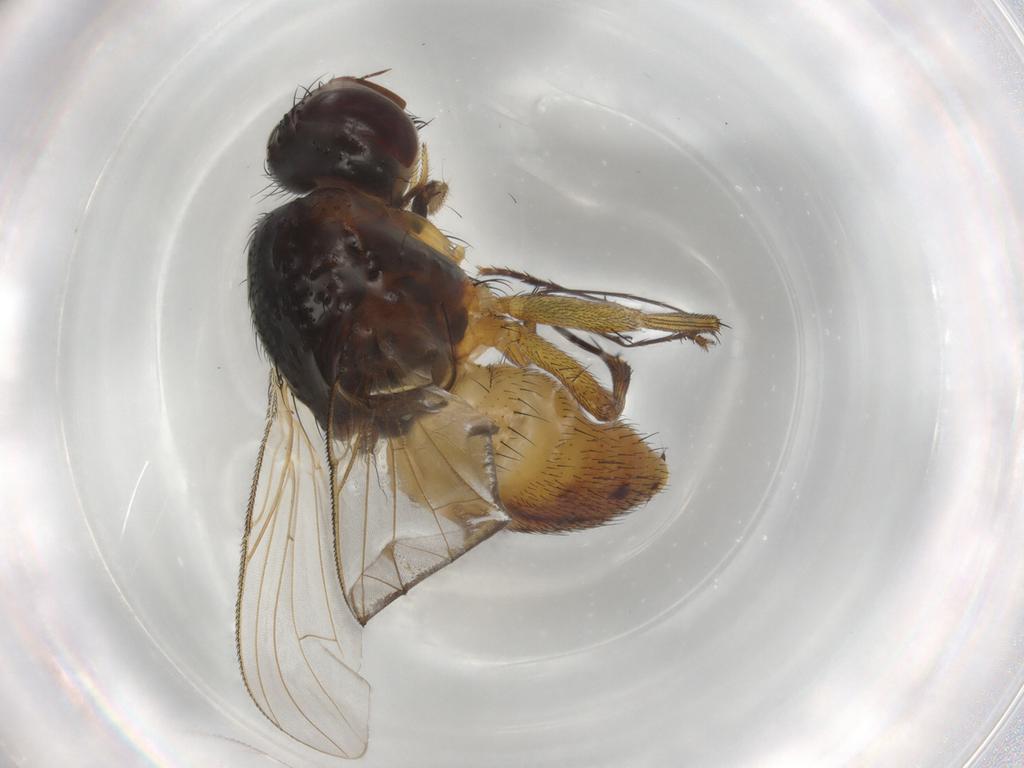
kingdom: Animalia
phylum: Arthropoda
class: Insecta
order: Diptera
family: Muscidae
